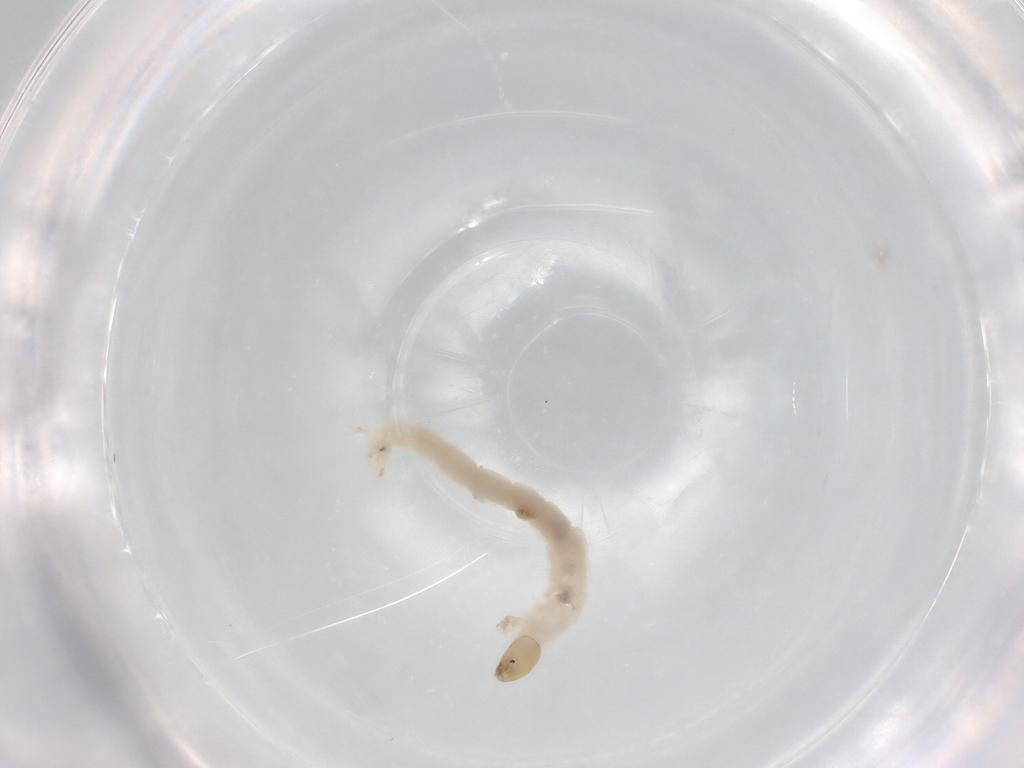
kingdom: Animalia
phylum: Arthropoda
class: Insecta
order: Diptera
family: Chironomidae
